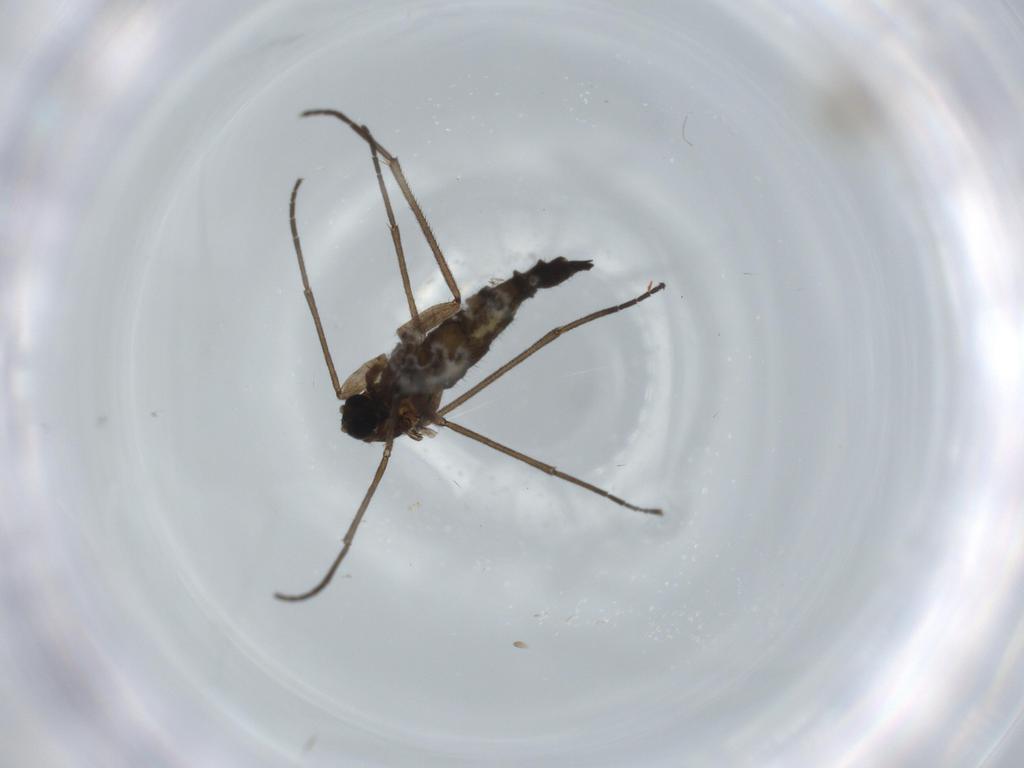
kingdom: Animalia
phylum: Arthropoda
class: Insecta
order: Diptera
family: Cecidomyiidae
